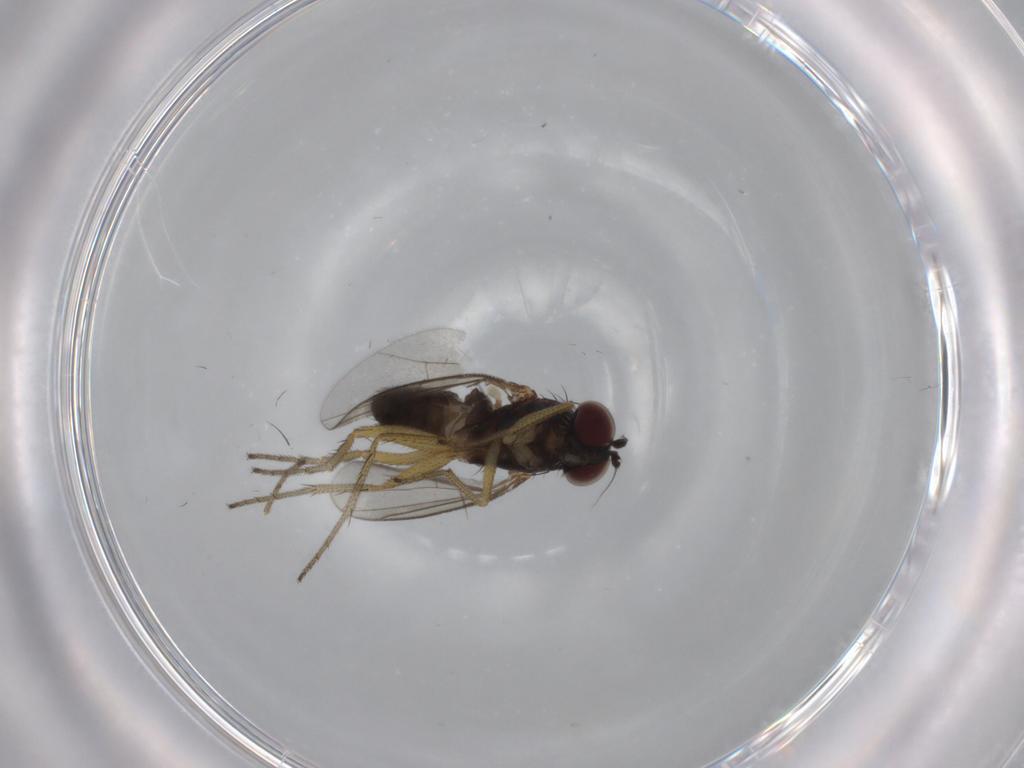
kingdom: Animalia
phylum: Arthropoda
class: Insecta
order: Diptera
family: Dolichopodidae
